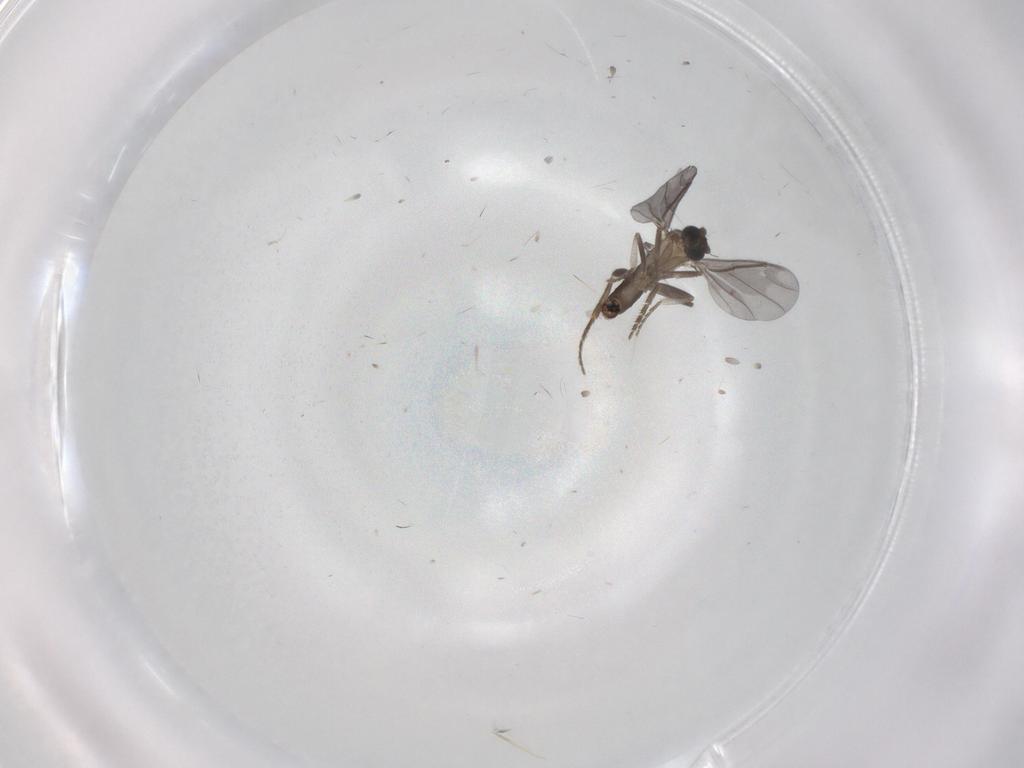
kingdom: Animalia
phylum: Arthropoda
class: Insecta
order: Diptera
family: Phoridae
